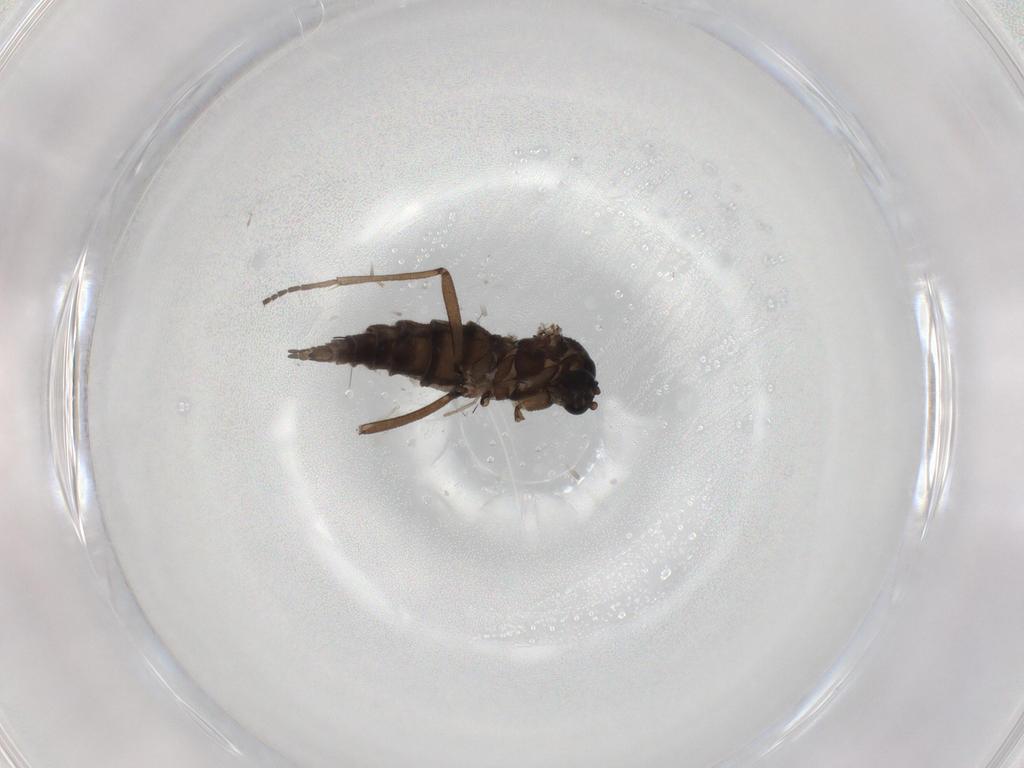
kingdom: Animalia
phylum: Arthropoda
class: Insecta
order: Diptera
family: Sciaridae
